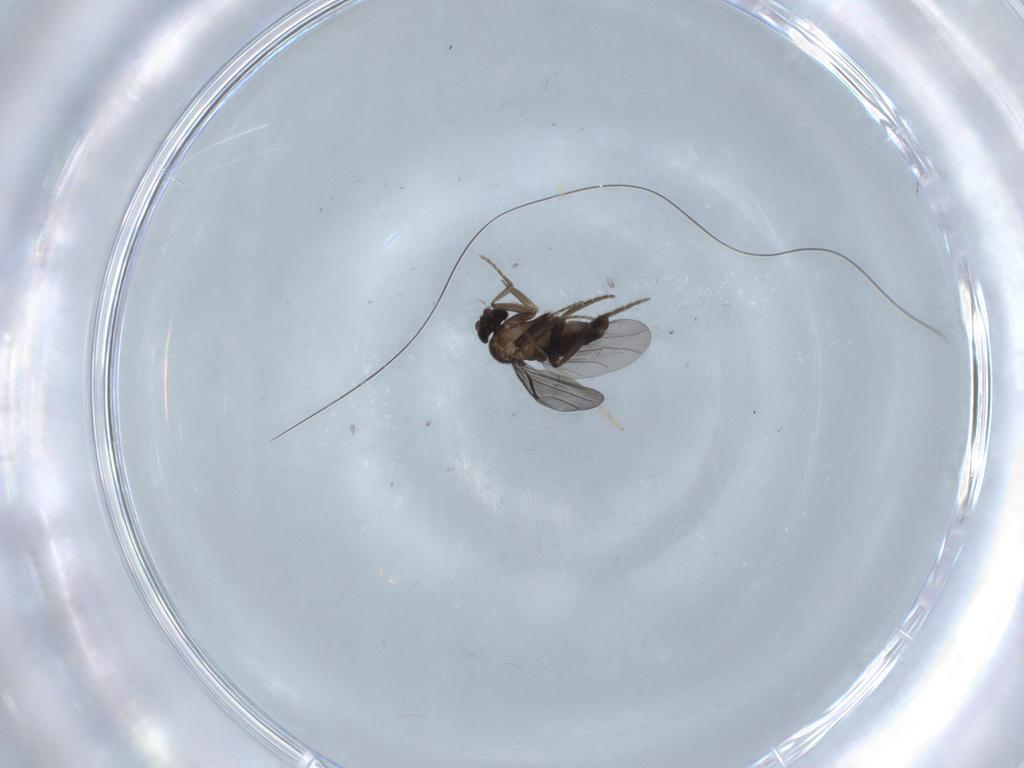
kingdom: Animalia
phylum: Arthropoda
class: Insecta
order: Diptera
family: Phoridae
